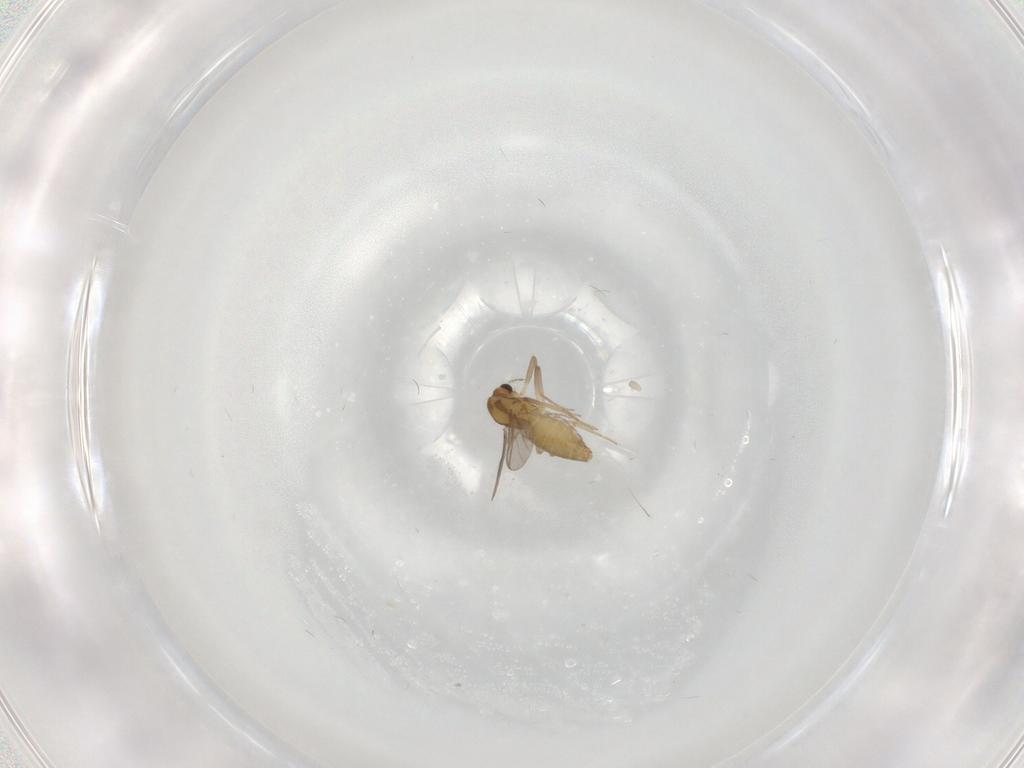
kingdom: Animalia
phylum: Arthropoda
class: Insecta
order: Diptera
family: Chironomidae
